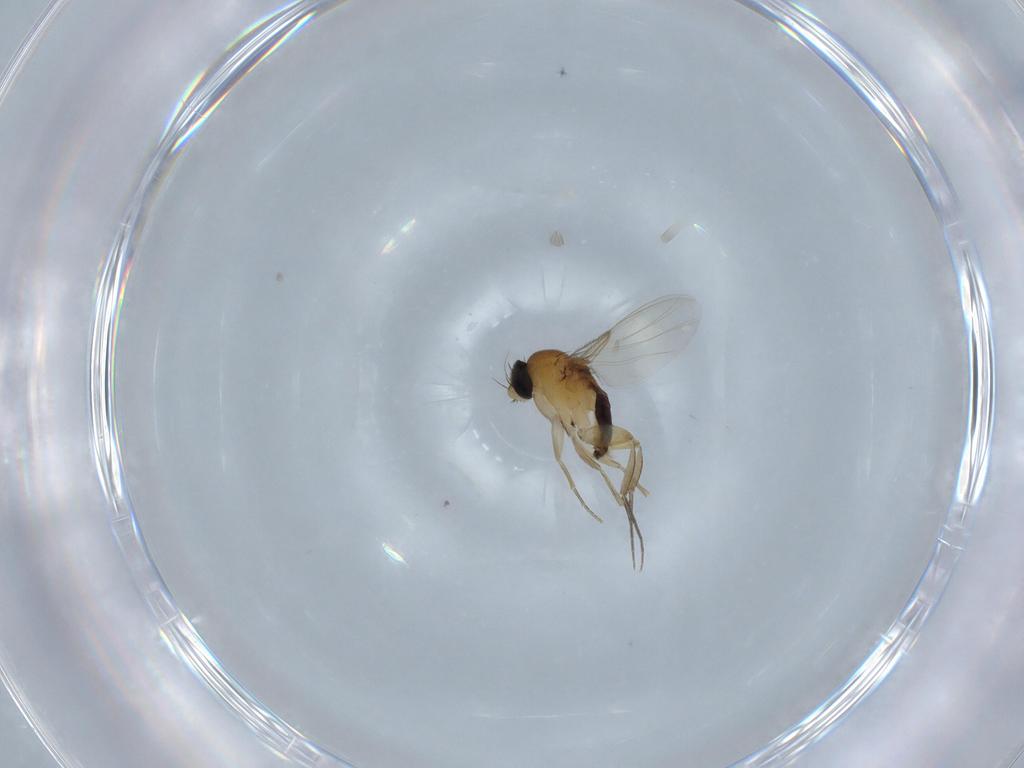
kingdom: Animalia
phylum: Arthropoda
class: Insecta
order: Diptera
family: Phoridae
